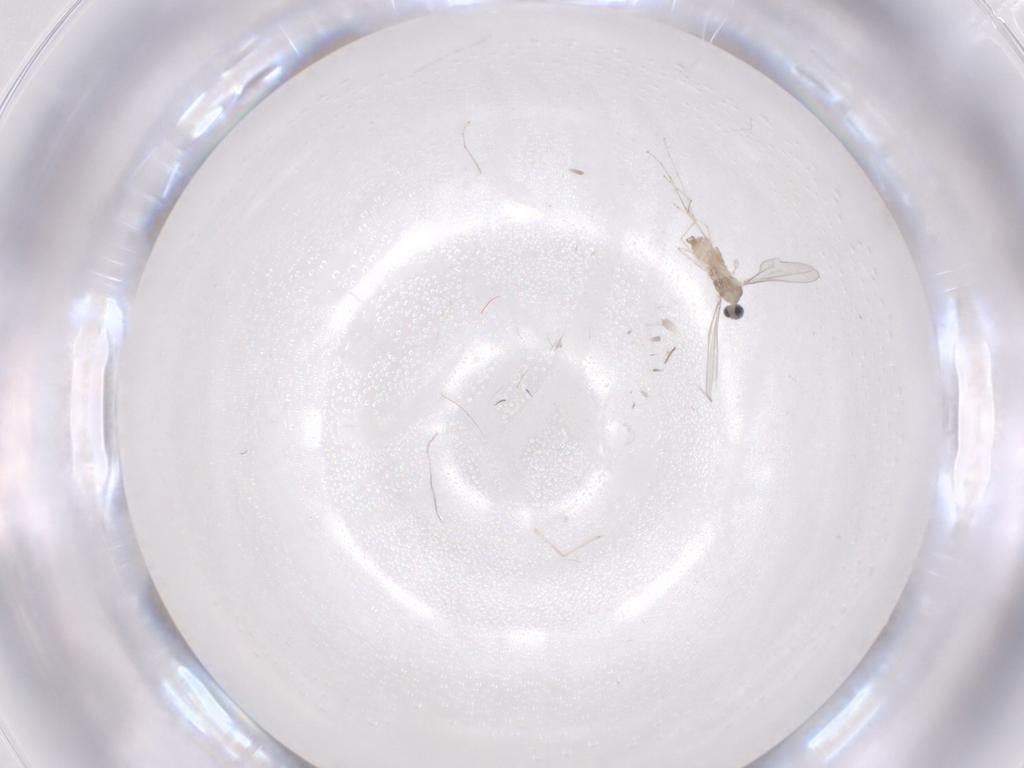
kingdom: Animalia
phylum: Arthropoda
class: Insecta
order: Diptera
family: Cecidomyiidae
